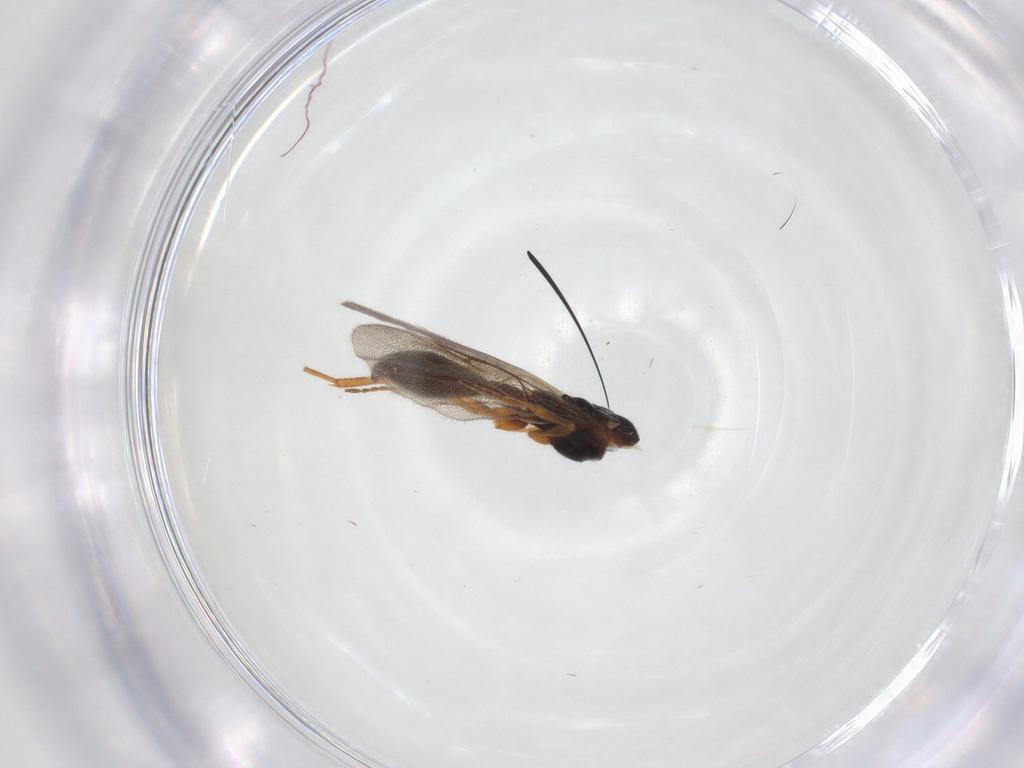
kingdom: Animalia
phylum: Arthropoda
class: Insecta
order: Hymenoptera
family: Diapriidae
